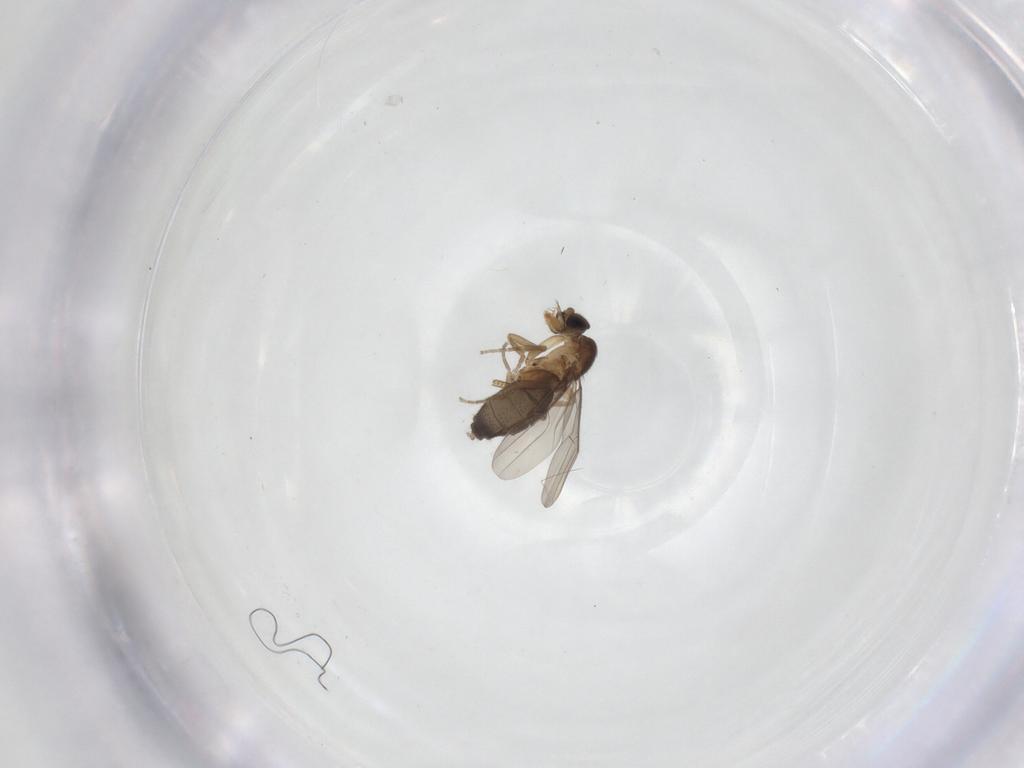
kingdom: Animalia
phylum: Arthropoda
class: Insecta
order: Diptera
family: Phoridae
